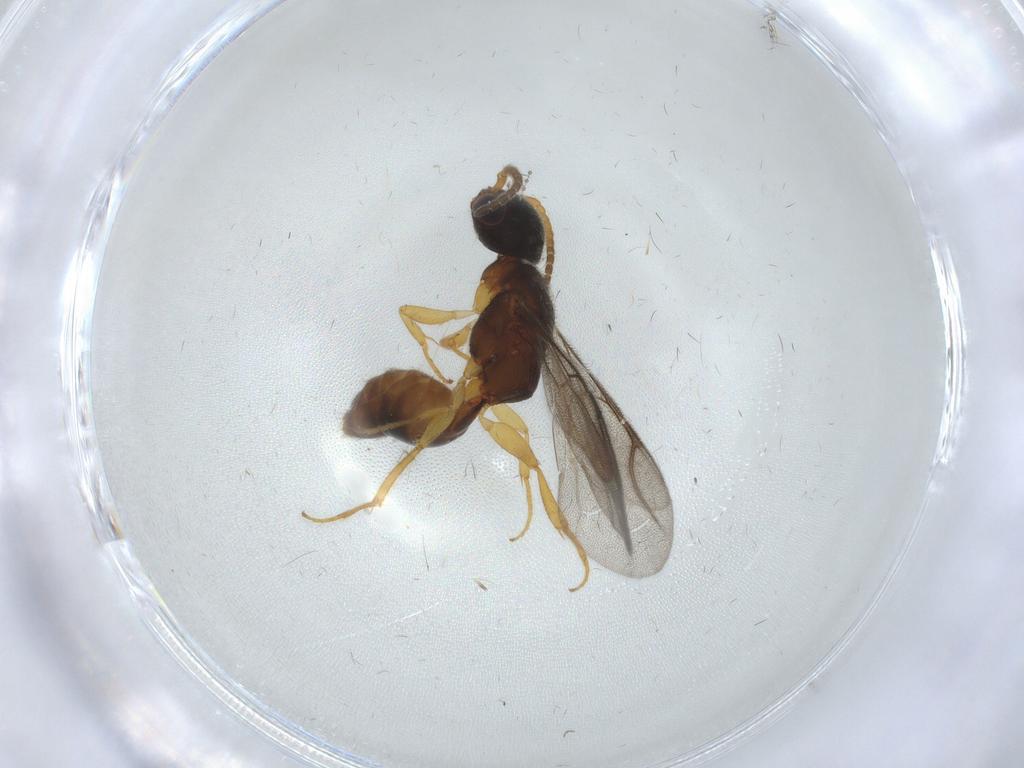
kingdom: Animalia
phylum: Arthropoda
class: Insecta
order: Hymenoptera
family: Bethylidae
